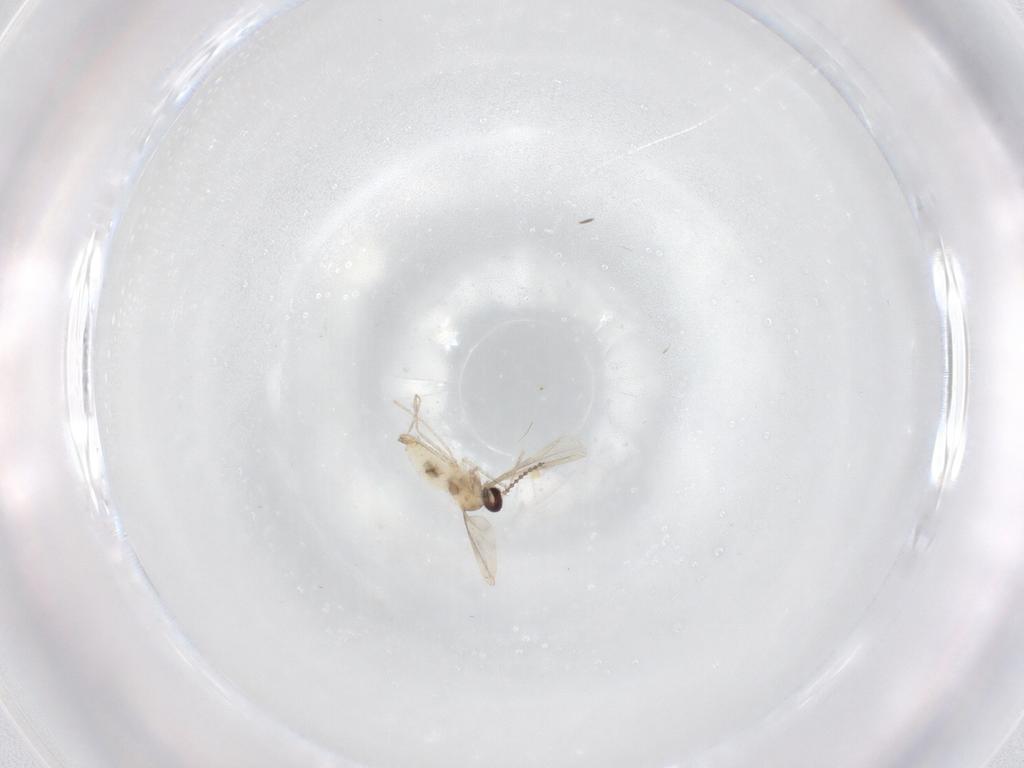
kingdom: Animalia
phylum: Arthropoda
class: Insecta
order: Diptera
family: Cecidomyiidae
